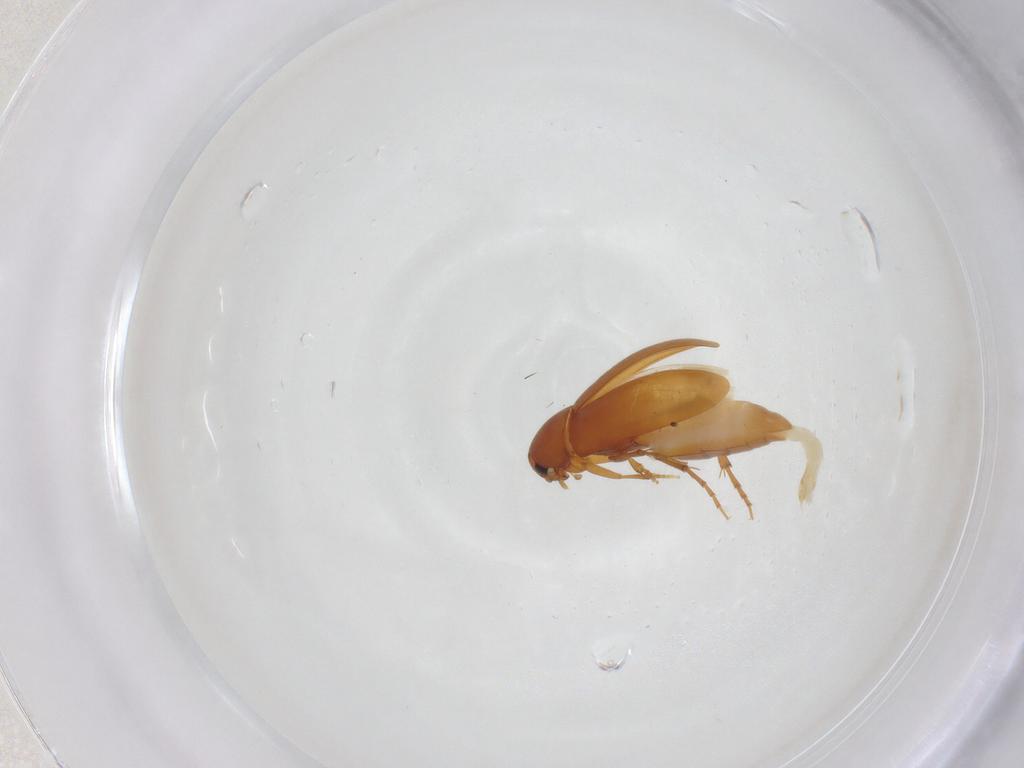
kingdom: Animalia
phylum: Arthropoda
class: Insecta
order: Coleoptera
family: Scraptiidae
